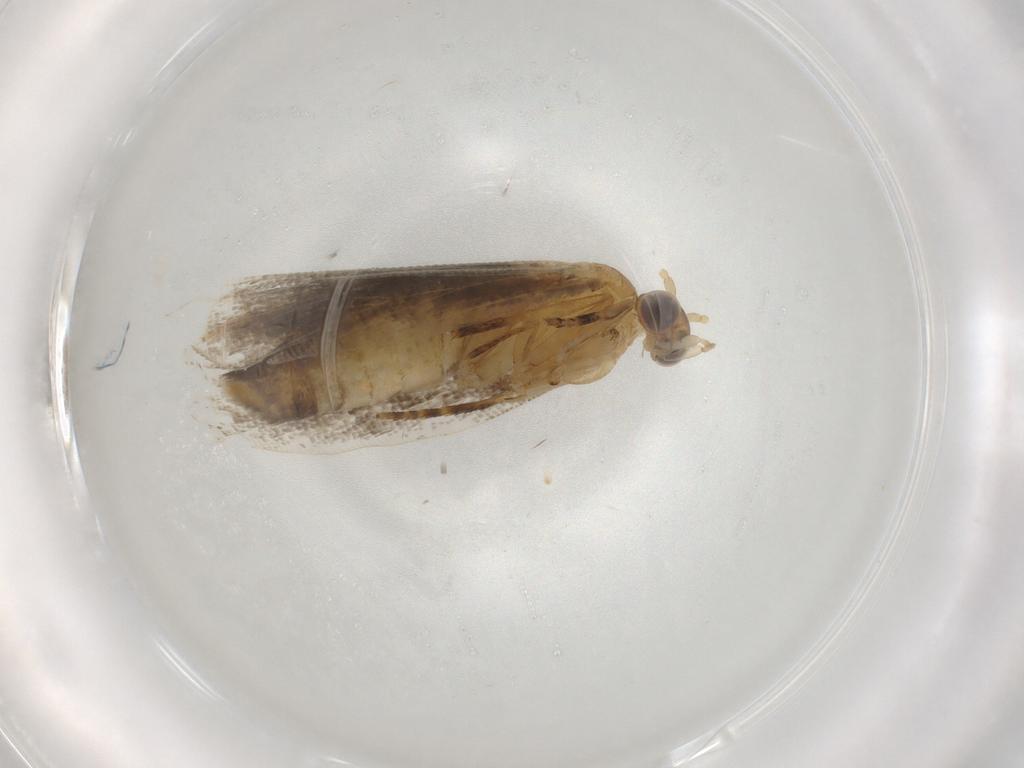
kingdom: Animalia
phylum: Arthropoda
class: Insecta
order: Lepidoptera
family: Tortricidae
